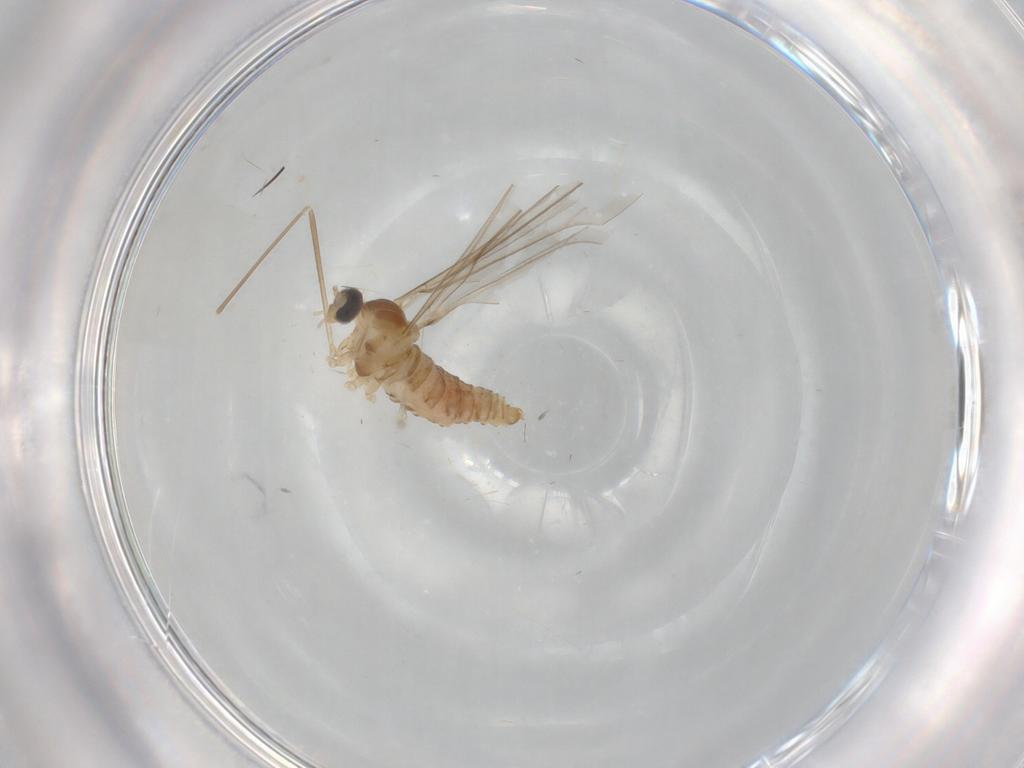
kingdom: Animalia
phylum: Arthropoda
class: Insecta
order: Diptera
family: Cecidomyiidae
